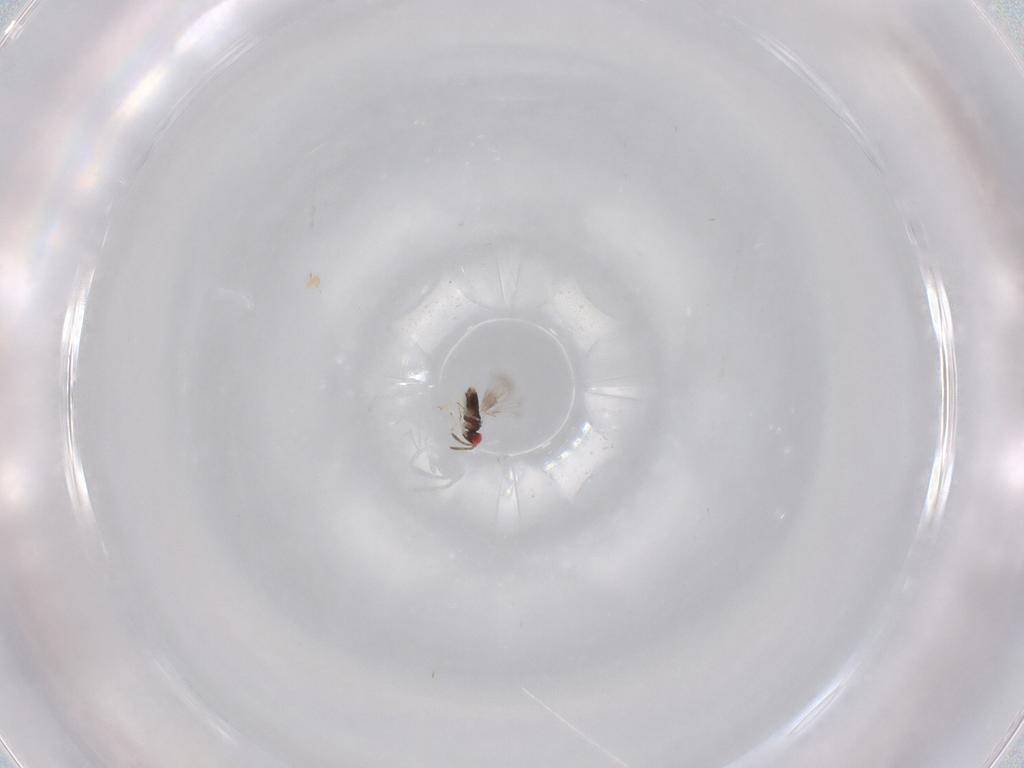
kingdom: Animalia
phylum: Arthropoda
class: Insecta
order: Hymenoptera
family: Vespidae
